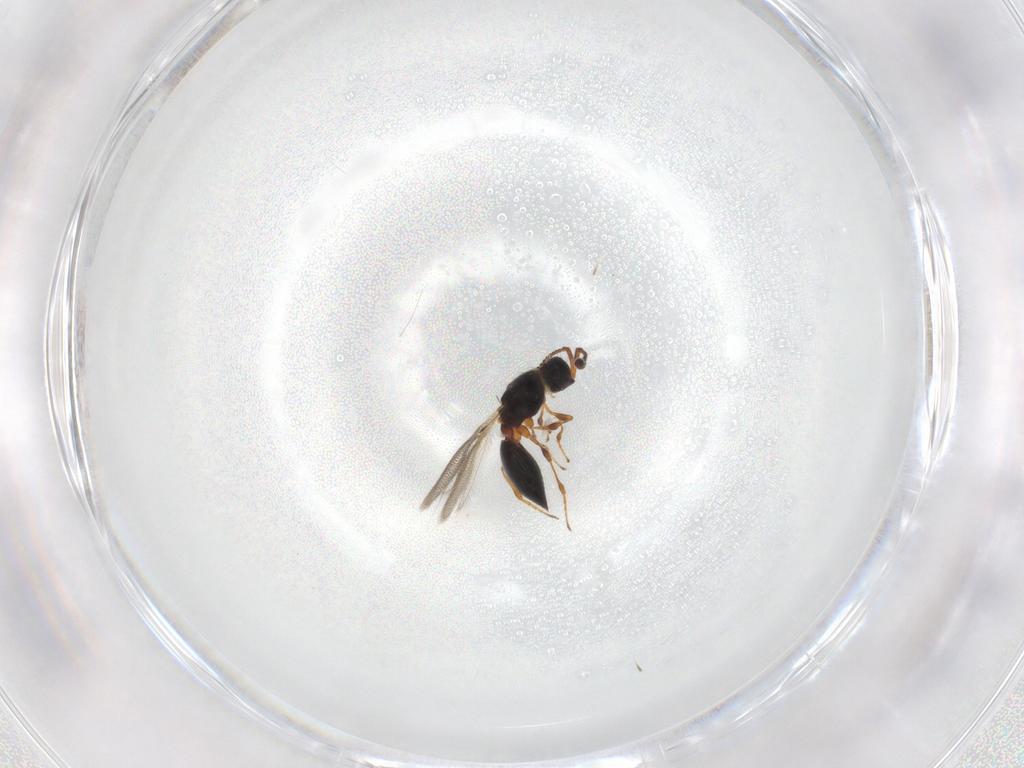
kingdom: Animalia
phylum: Arthropoda
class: Insecta
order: Hymenoptera
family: Diapriidae
